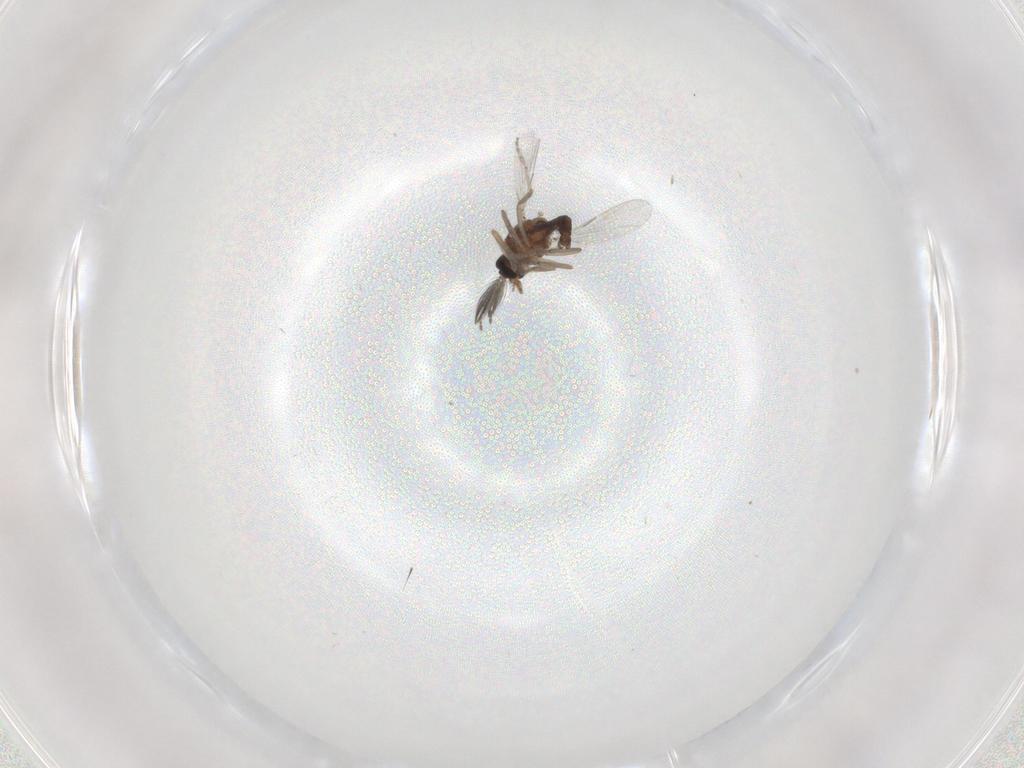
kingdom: Animalia
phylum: Arthropoda
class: Insecta
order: Diptera
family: Ceratopogonidae
